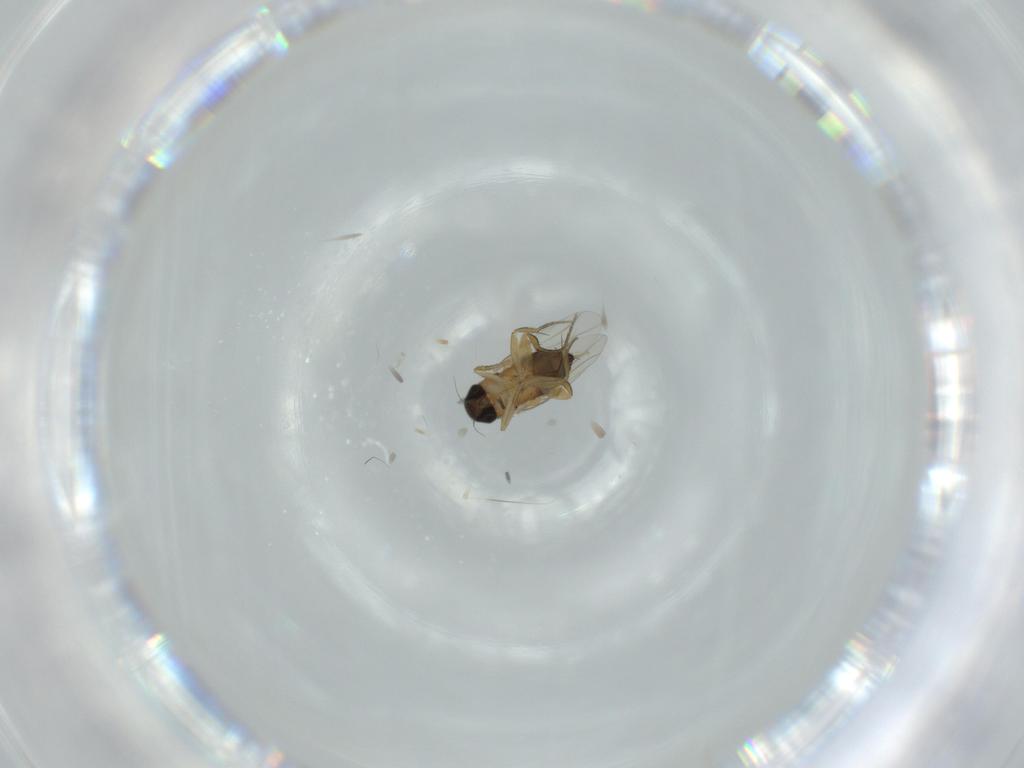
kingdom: Animalia
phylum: Arthropoda
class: Insecta
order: Diptera
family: Phoridae
